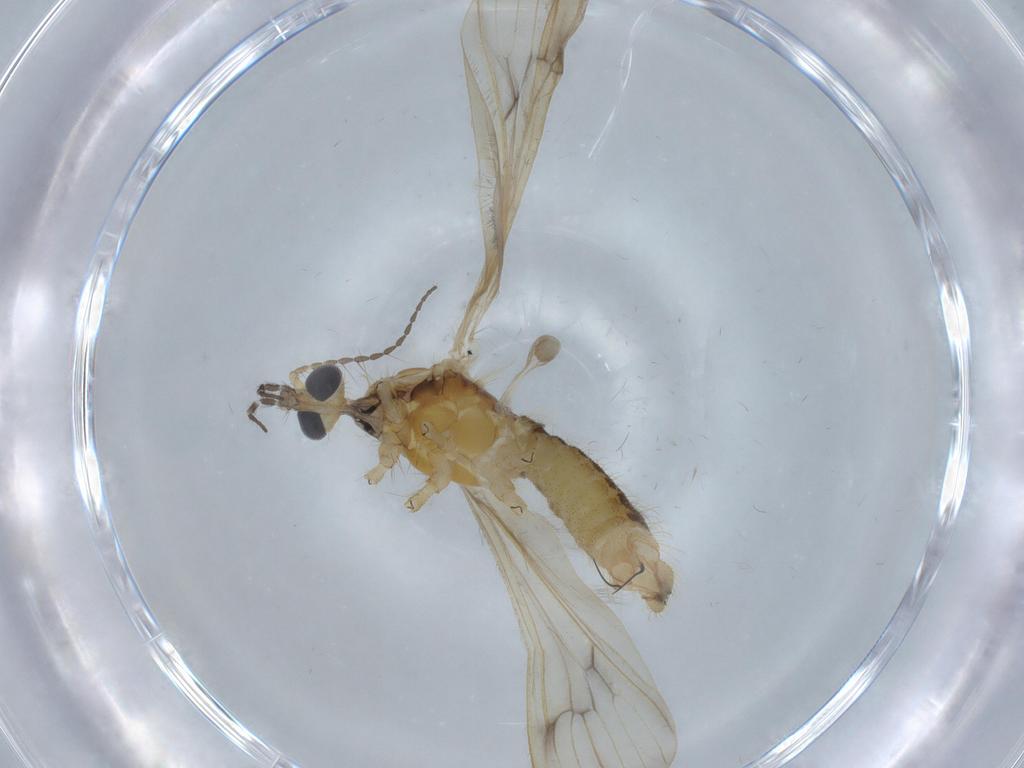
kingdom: Animalia
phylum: Arthropoda
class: Insecta
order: Diptera
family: Limoniidae
